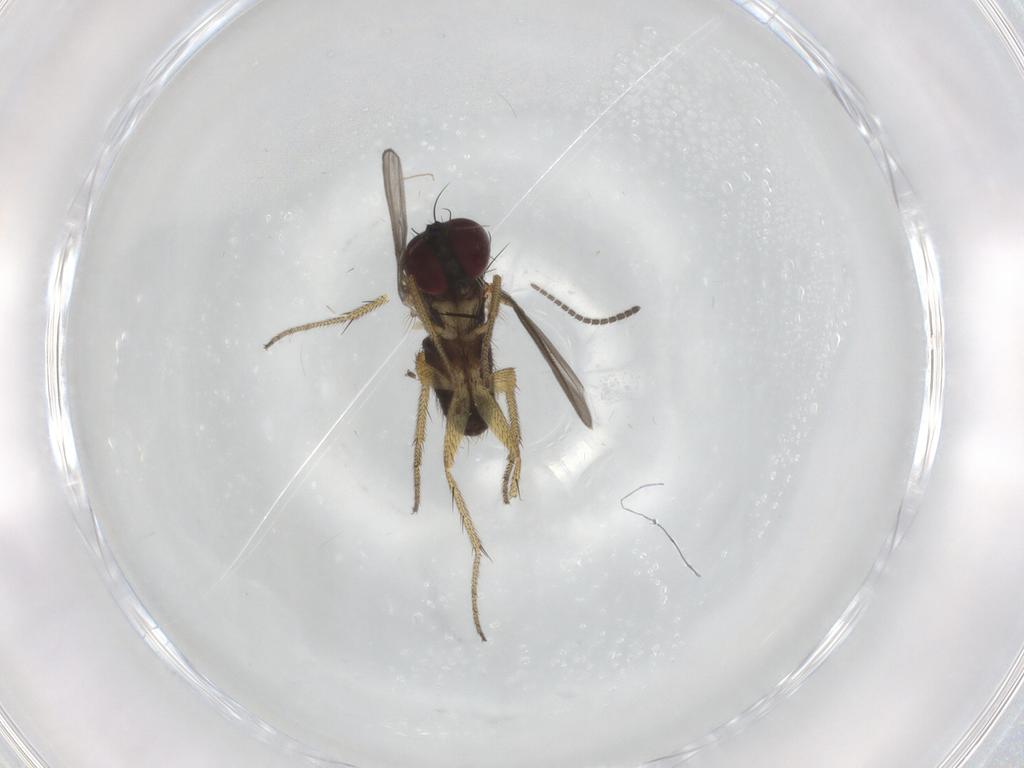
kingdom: Animalia
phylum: Arthropoda
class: Insecta
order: Diptera
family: Sciaridae
